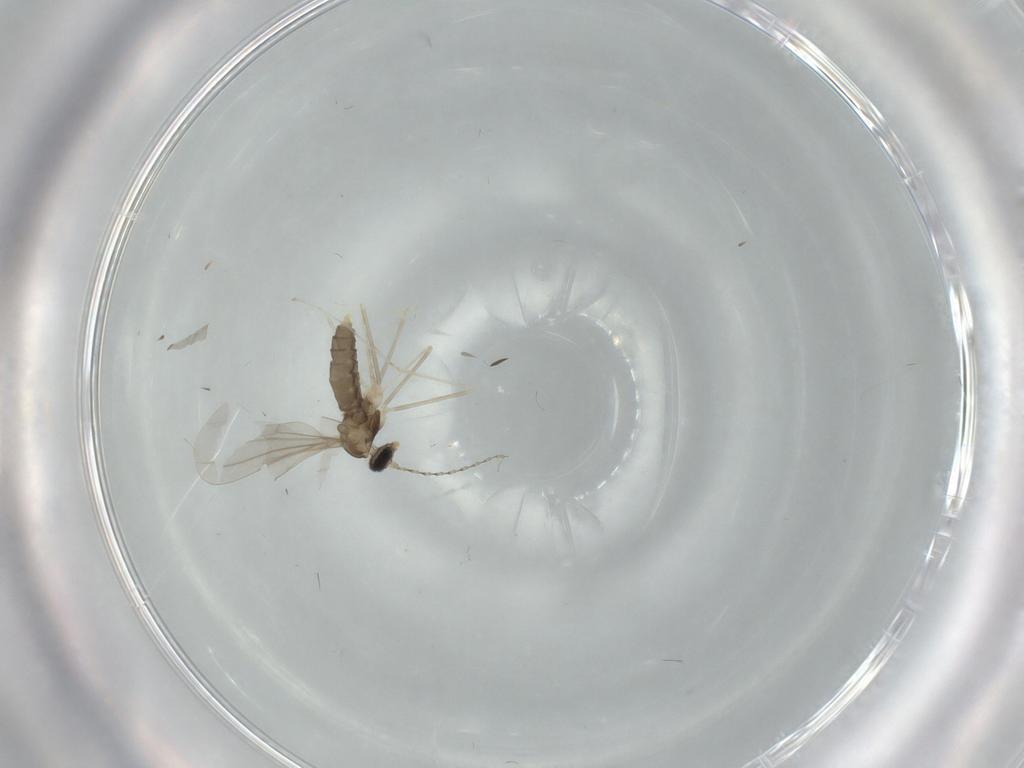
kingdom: Animalia
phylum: Arthropoda
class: Insecta
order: Diptera
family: Cecidomyiidae
